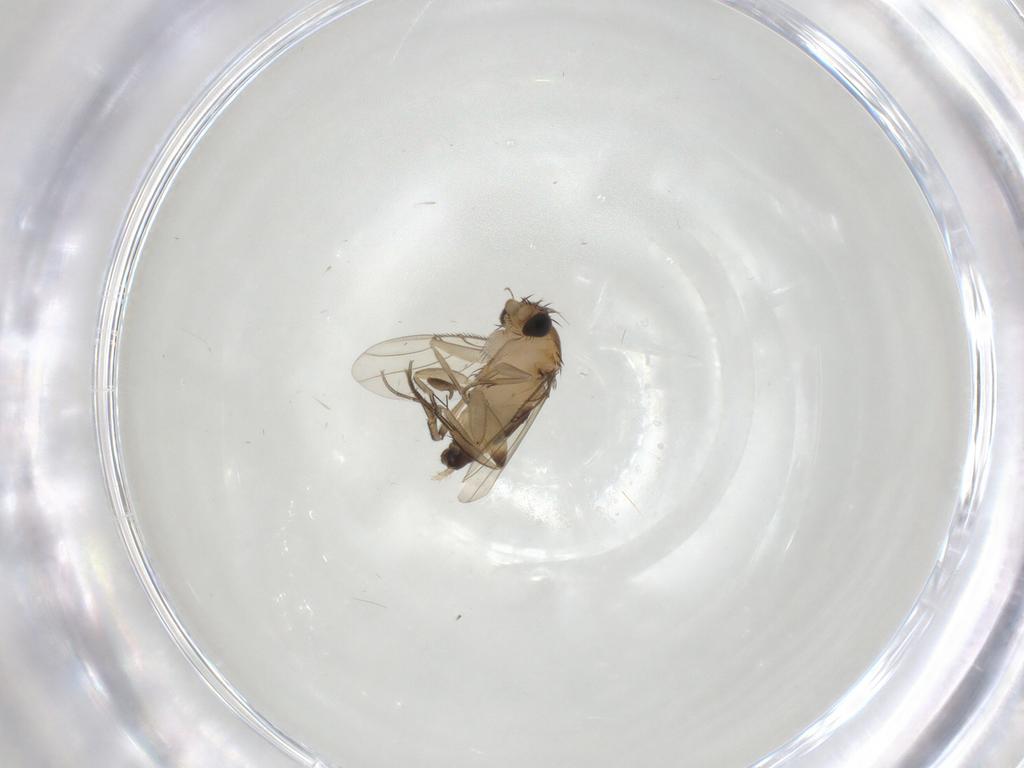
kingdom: Animalia
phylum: Arthropoda
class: Insecta
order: Diptera
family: Phoridae
